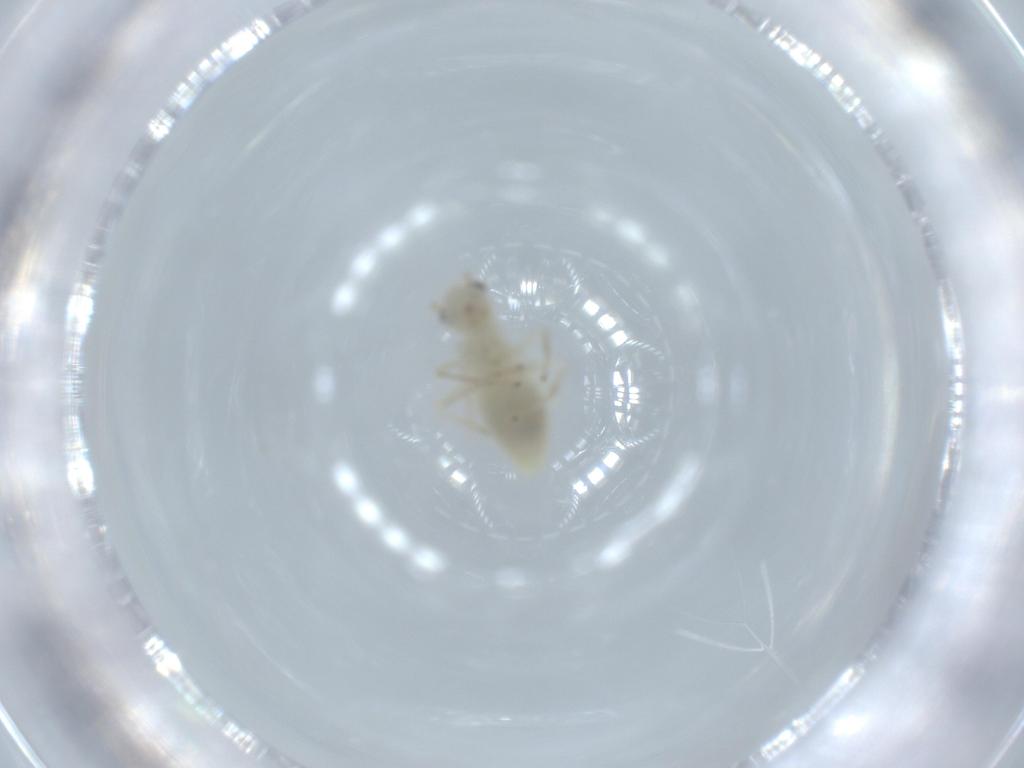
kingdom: Animalia
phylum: Arthropoda
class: Insecta
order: Psocodea
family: Caeciliusidae
